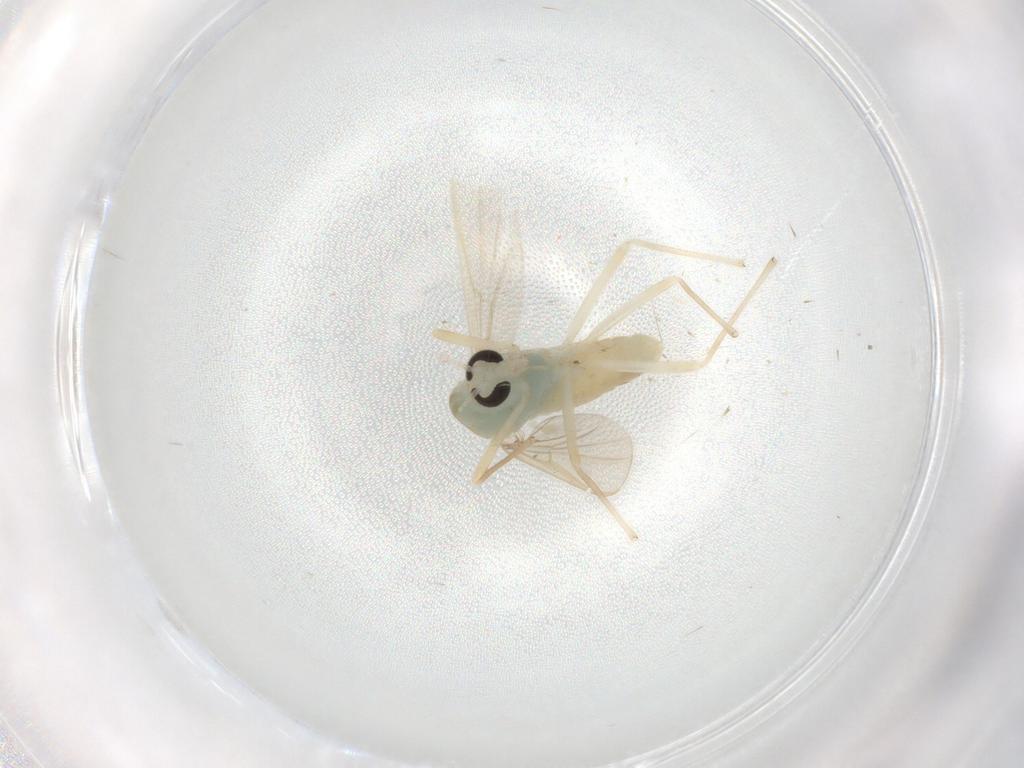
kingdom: Animalia
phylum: Arthropoda
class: Insecta
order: Diptera
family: Chironomidae
